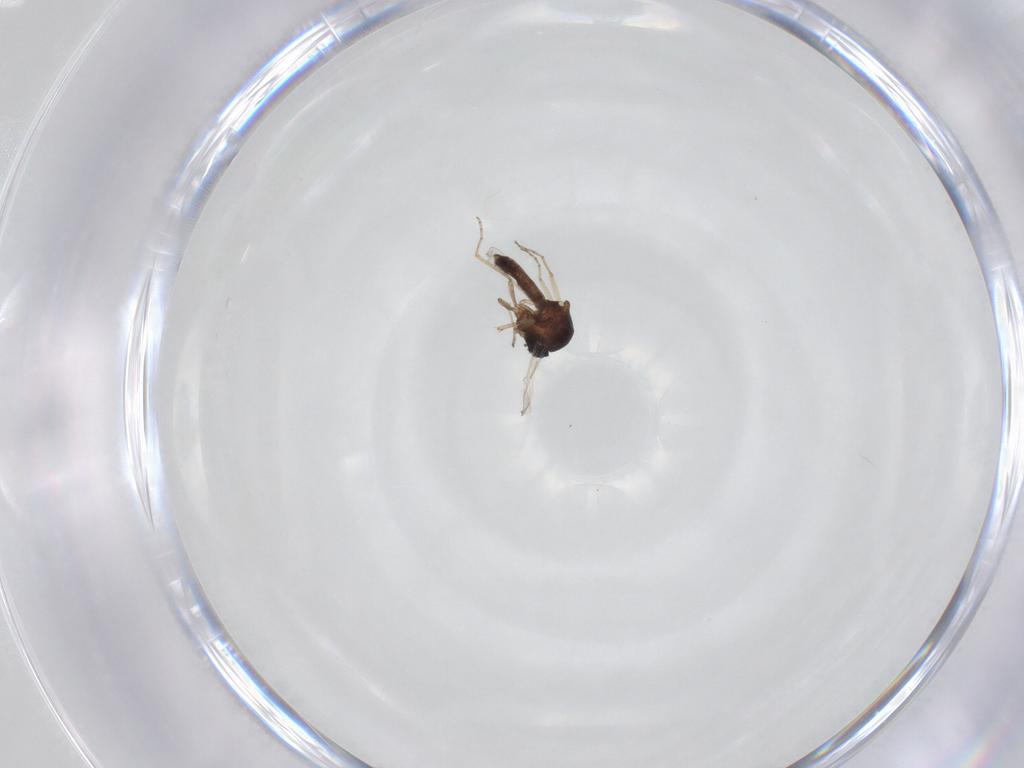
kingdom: Animalia
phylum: Arthropoda
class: Insecta
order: Diptera
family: Ceratopogonidae
